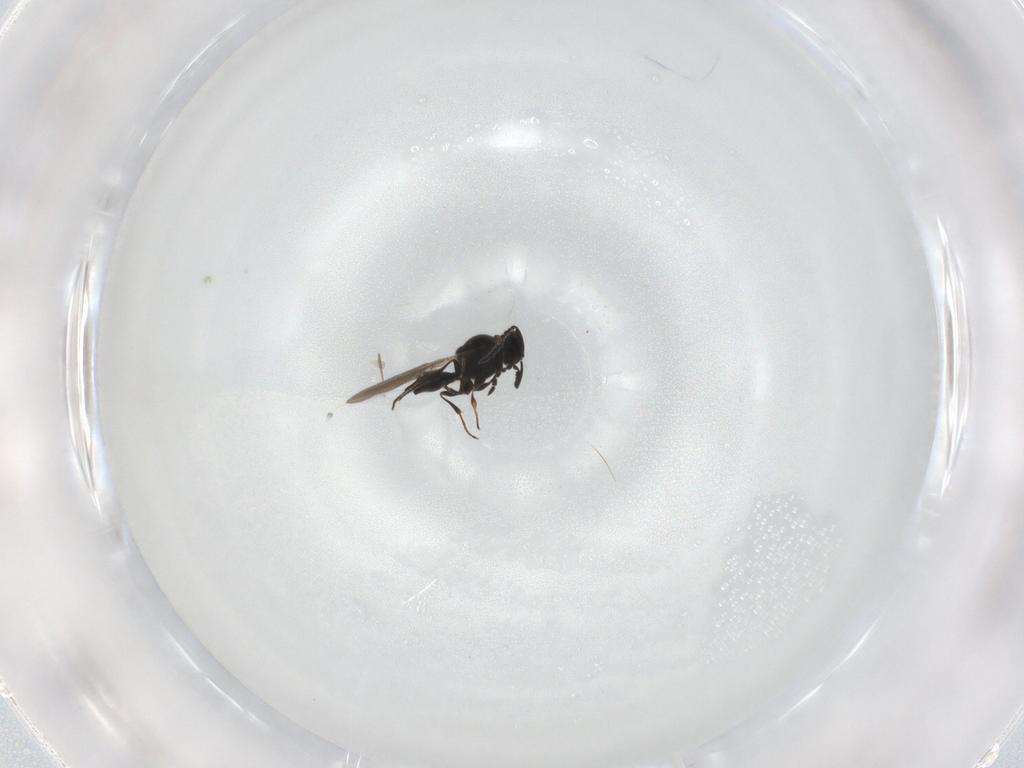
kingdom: Animalia
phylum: Arthropoda
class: Insecta
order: Hymenoptera
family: Platygastridae
